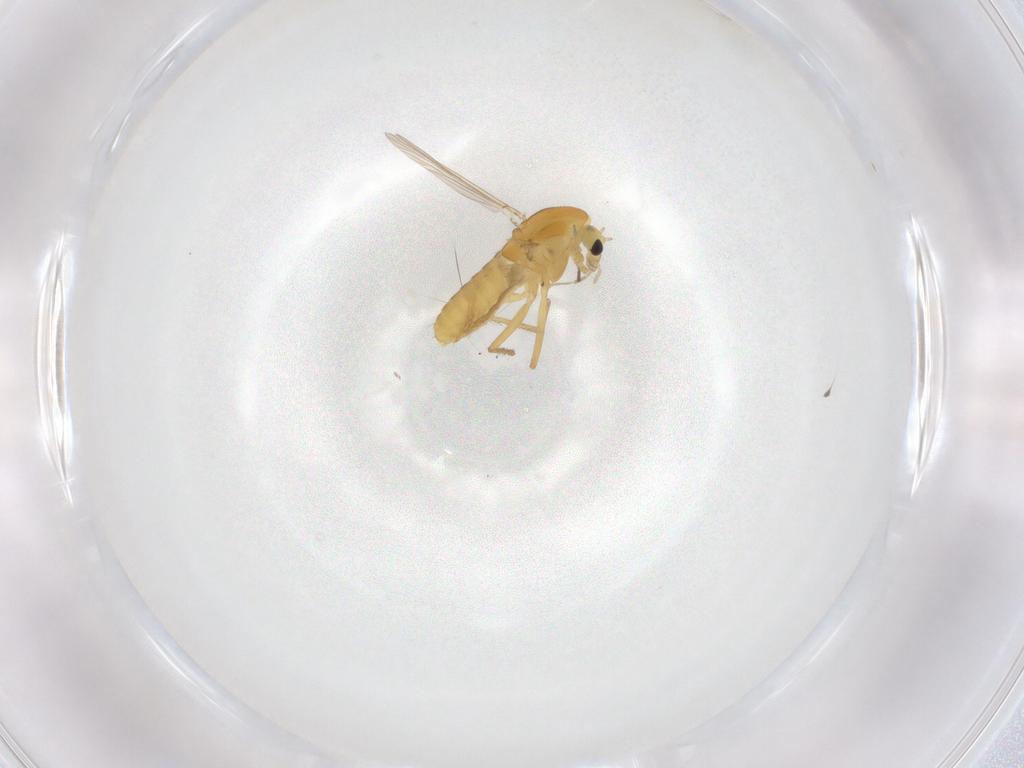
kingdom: Animalia
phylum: Arthropoda
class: Insecta
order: Diptera
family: Chironomidae
